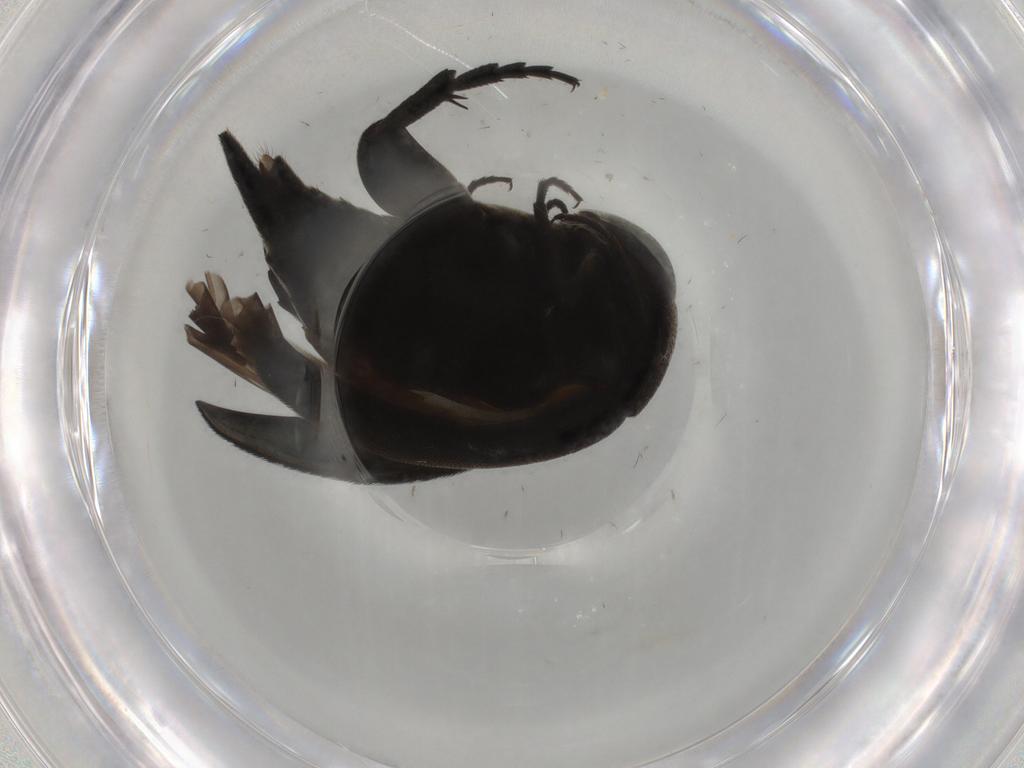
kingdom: Animalia
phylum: Arthropoda
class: Insecta
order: Coleoptera
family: Mordellidae
